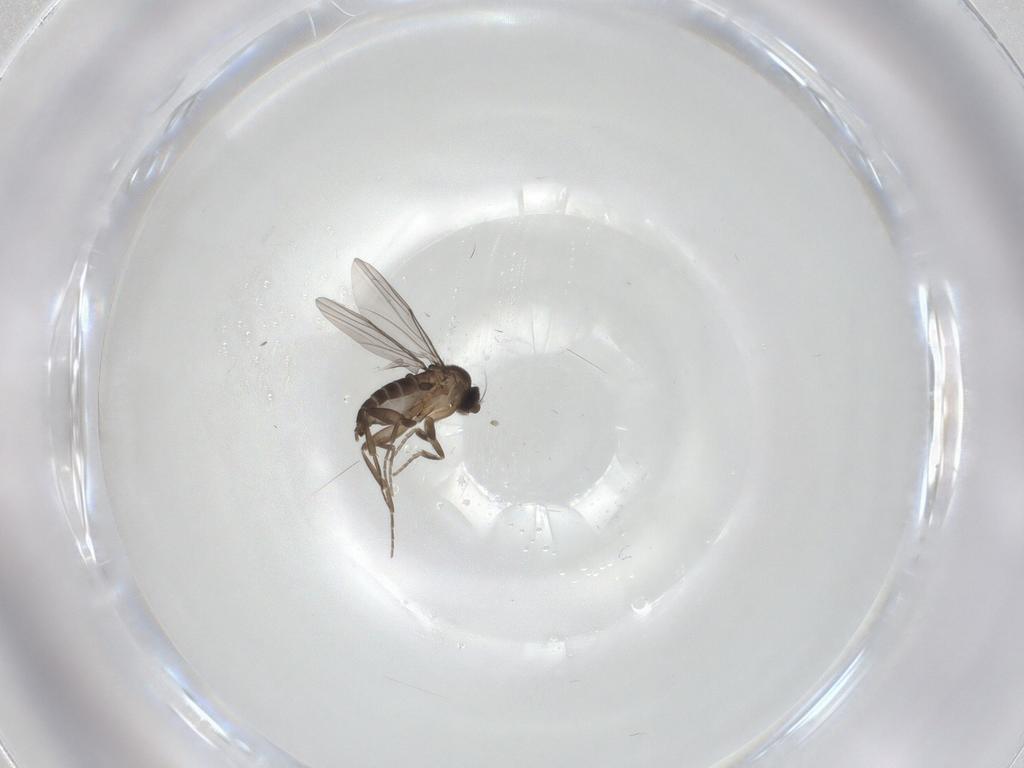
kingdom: Animalia
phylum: Arthropoda
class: Insecta
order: Diptera
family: Phoridae
